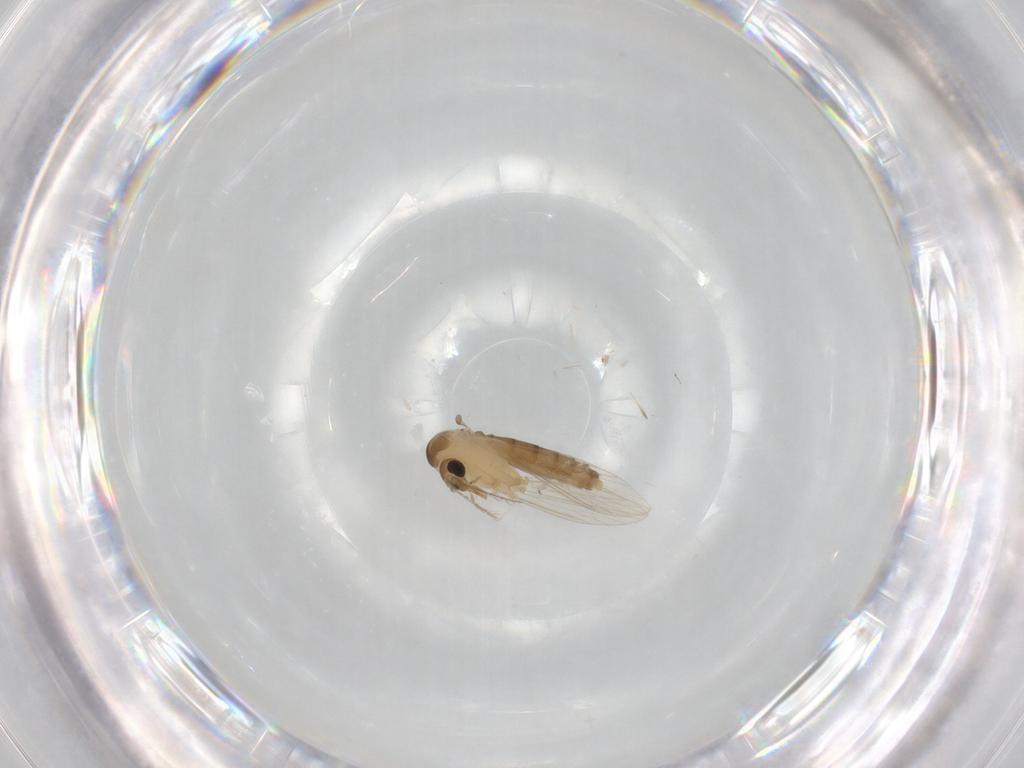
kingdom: Animalia
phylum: Arthropoda
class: Insecta
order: Diptera
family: Psychodidae
